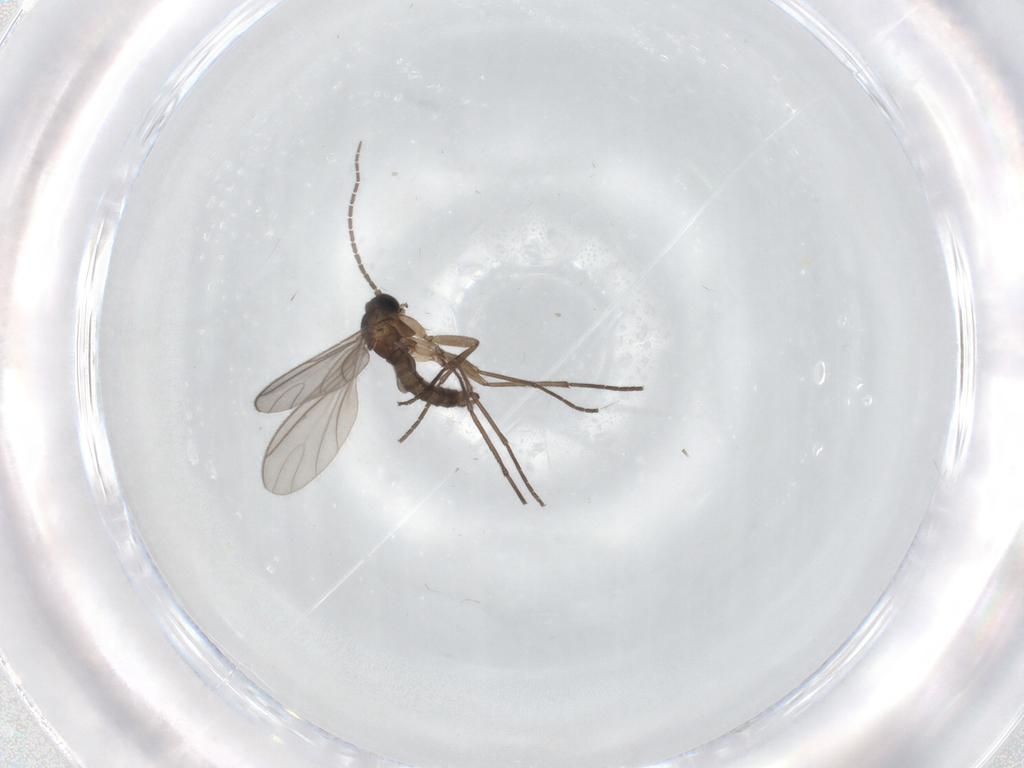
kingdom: Animalia
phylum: Arthropoda
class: Insecta
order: Diptera
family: Sciaridae
